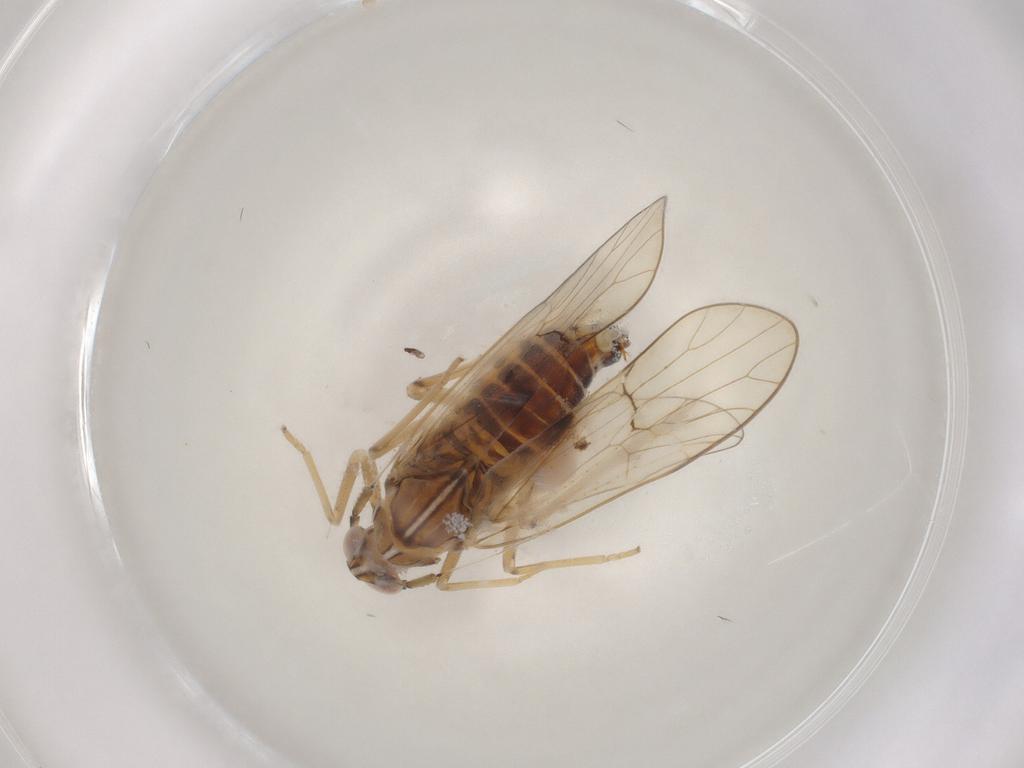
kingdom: Animalia
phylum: Arthropoda
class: Insecta
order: Hemiptera
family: Delphacidae
